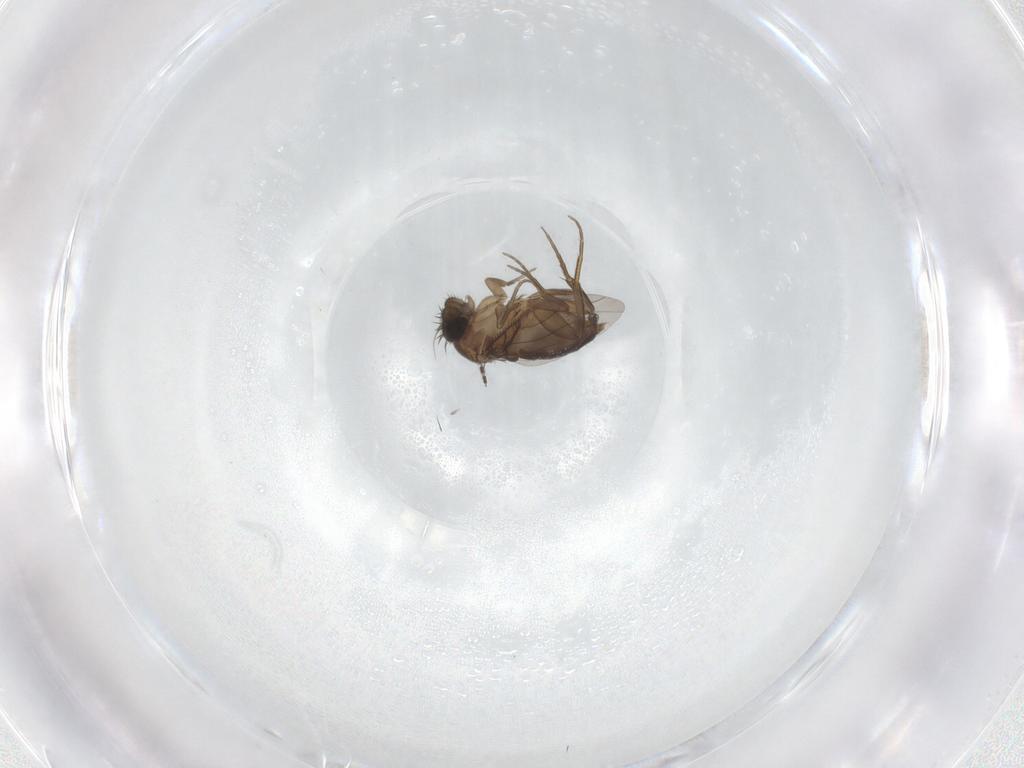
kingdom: Animalia
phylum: Arthropoda
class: Insecta
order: Diptera
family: Phoridae
